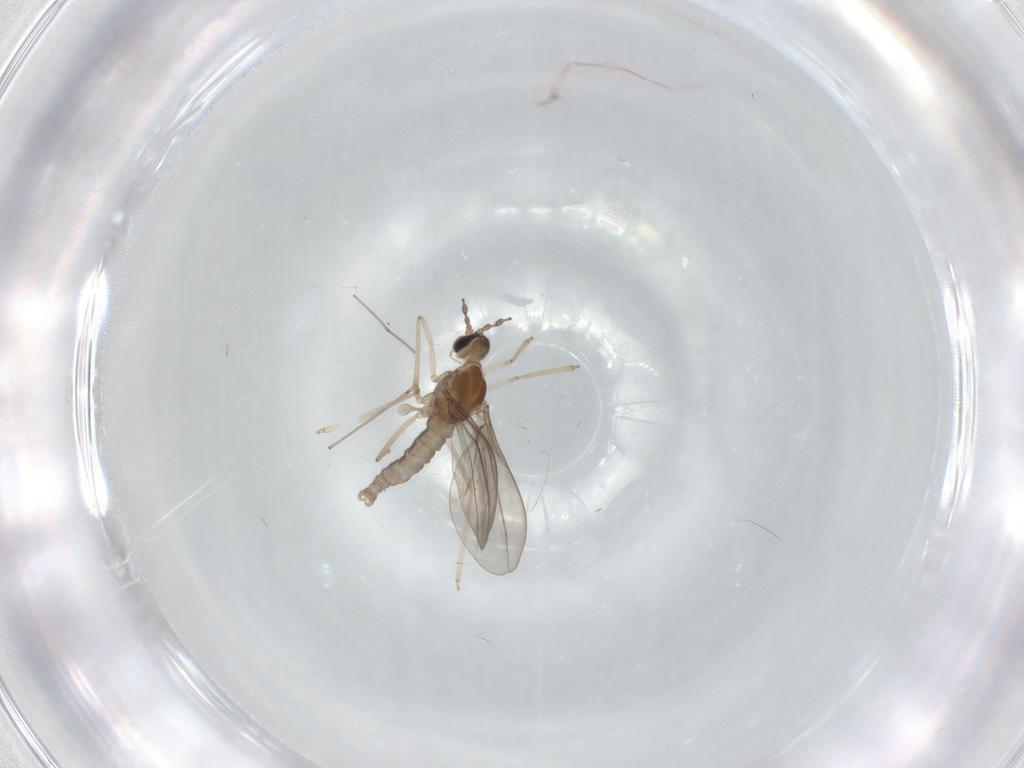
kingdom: Animalia
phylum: Arthropoda
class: Insecta
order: Diptera
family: Cecidomyiidae
